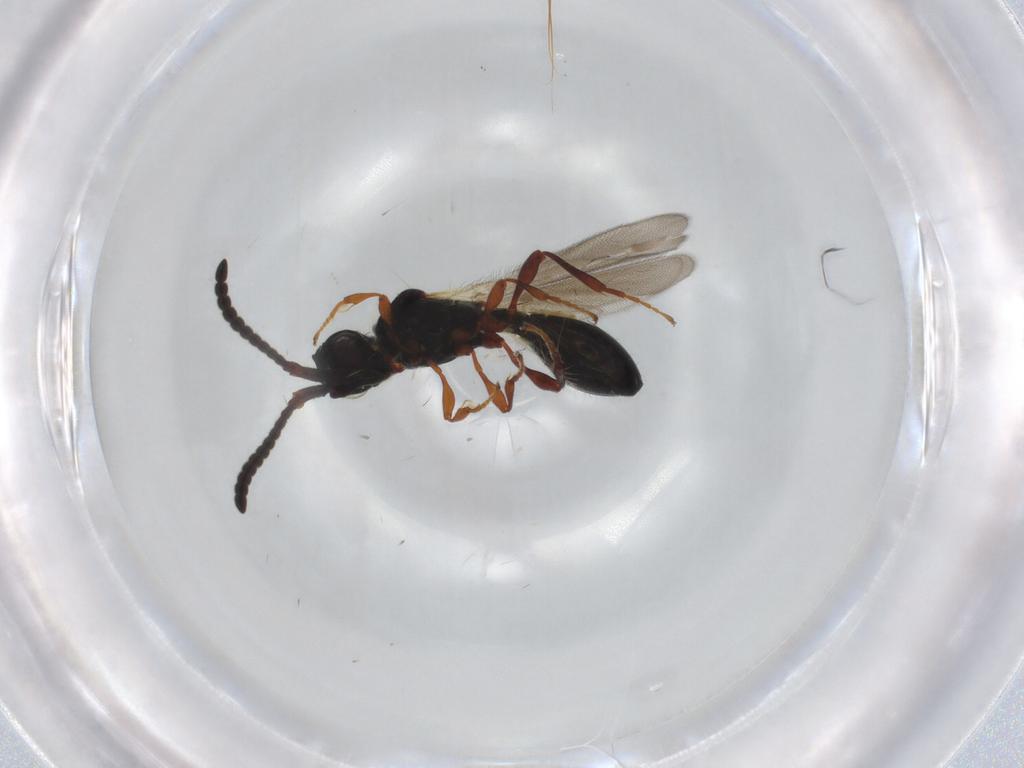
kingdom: Animalia
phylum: Arthropoda
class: Insecta
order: Hymenoptera
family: Diapriidae
